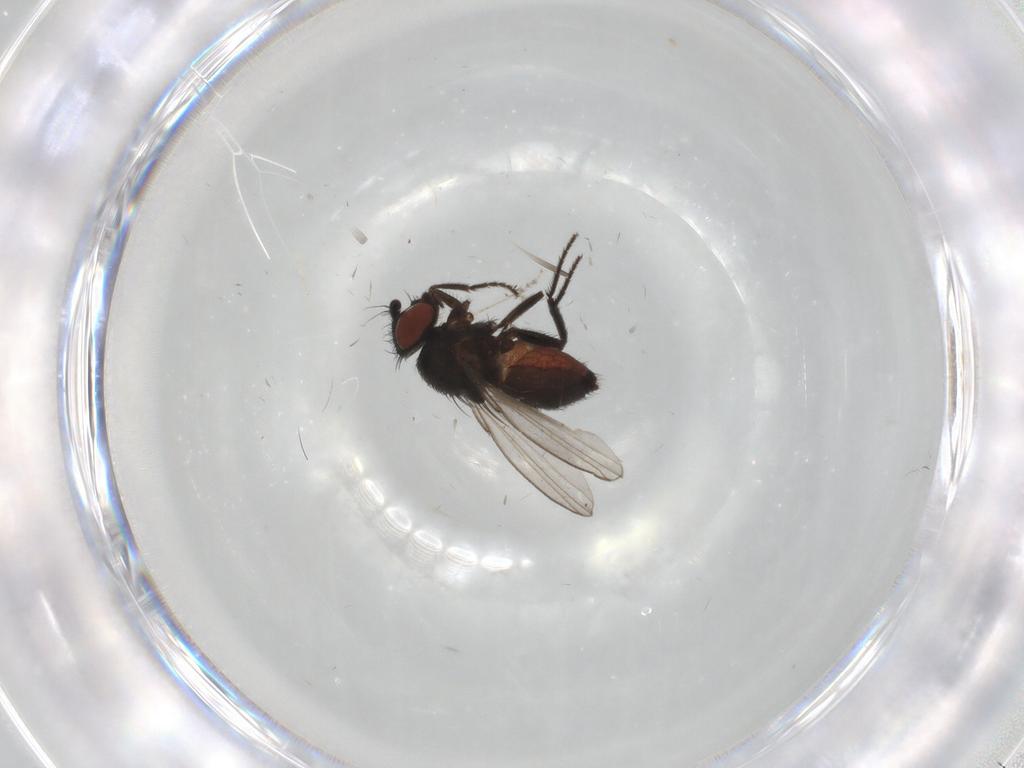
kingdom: Animalia
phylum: Arthropoda
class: Insecta
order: Diptera
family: Milichiidae
